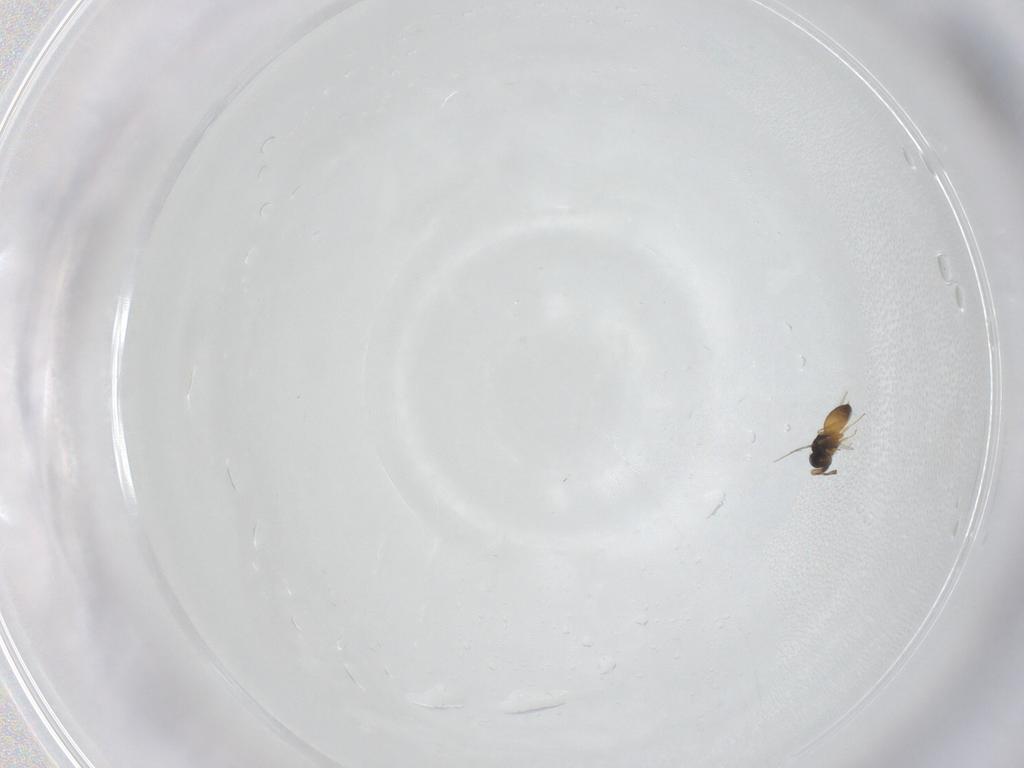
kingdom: Animalia
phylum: Arthropoda
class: Insecta
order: Hymenoptera
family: Scelionidae
